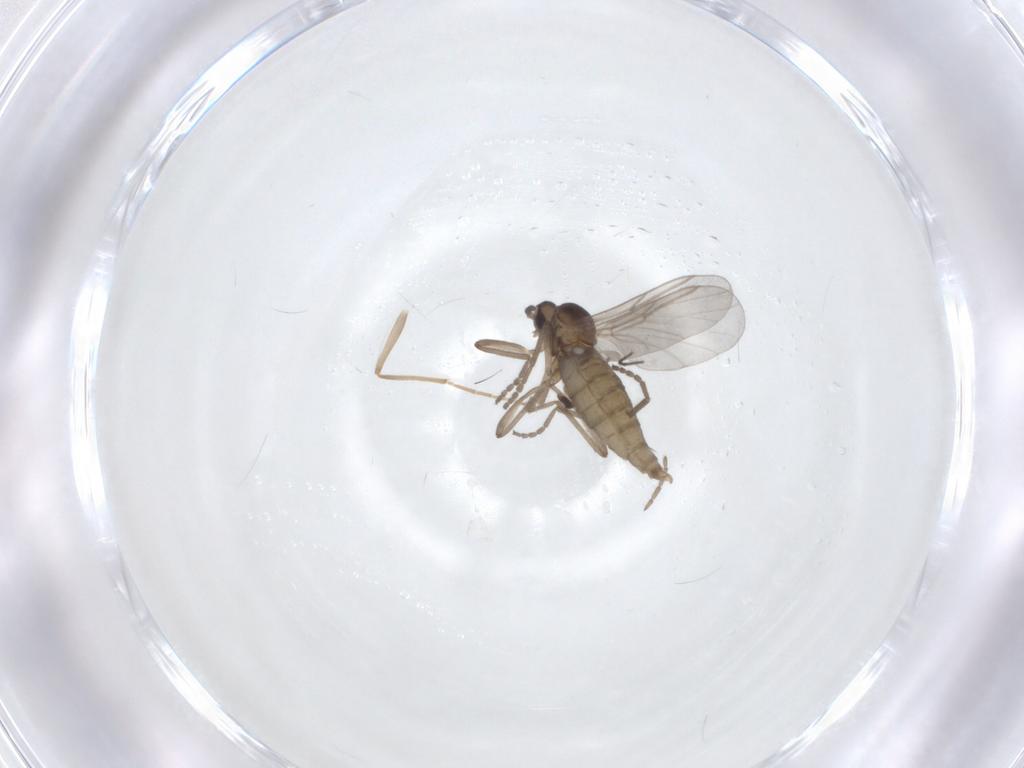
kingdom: Animalia
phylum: Arthropoda
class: Insecta
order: Diptera
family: Cecidomyiidae
